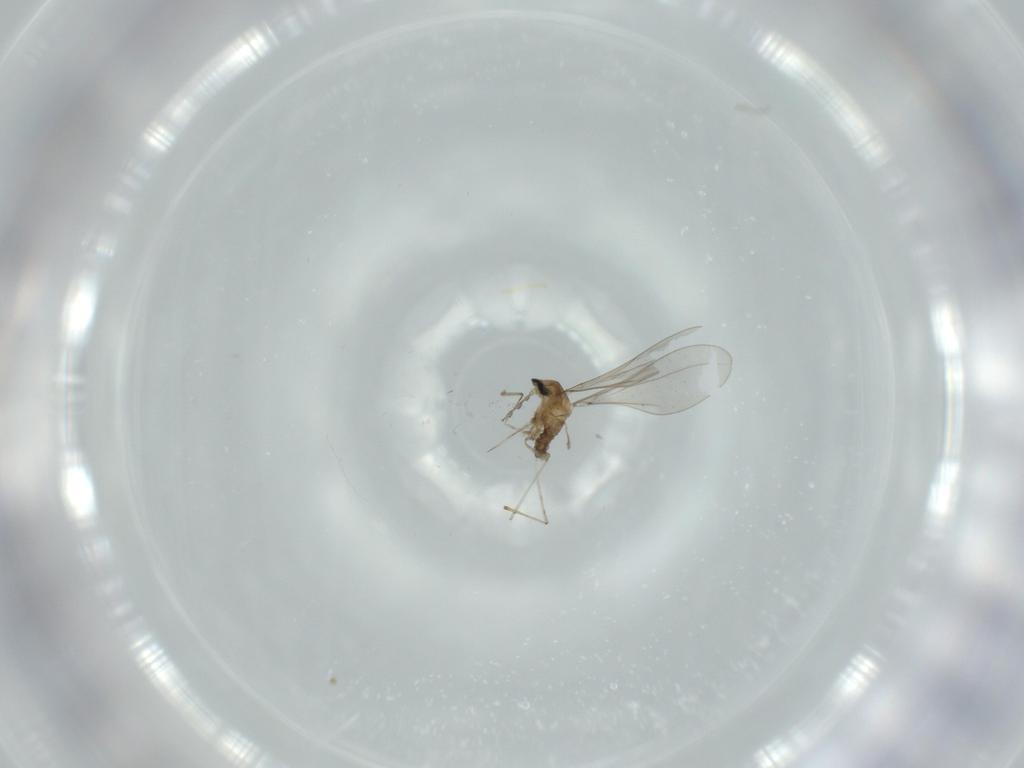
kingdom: Animalia
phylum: Arthropoda
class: Insecta
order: Diptera
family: Cecidomyiidae
